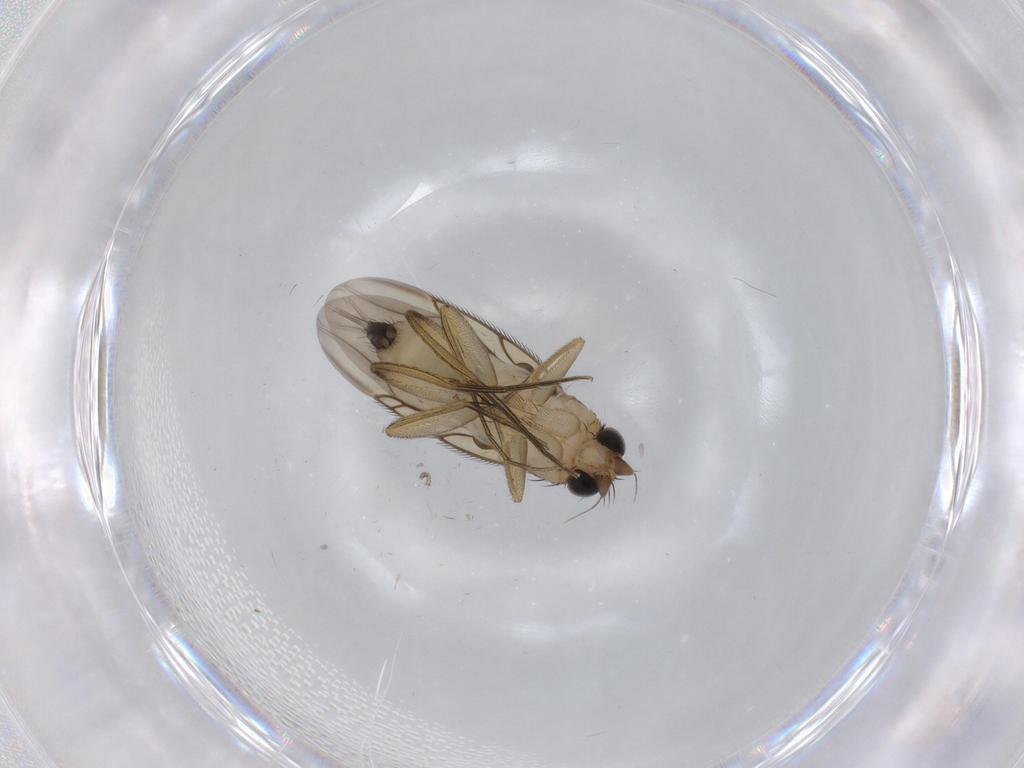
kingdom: Animalia
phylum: Arthropoda
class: Insecta
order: Diptera
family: Phoridae
